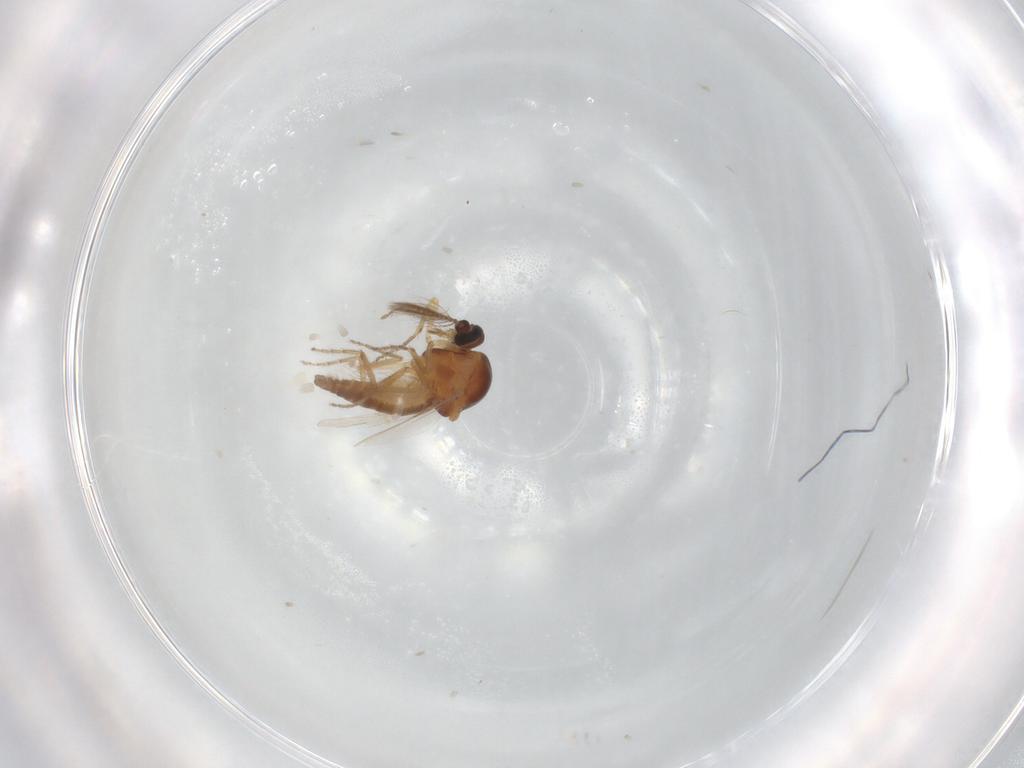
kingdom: Animalia
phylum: Arthropoda
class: Insecta
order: Diptera
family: Ceratopogonidae
